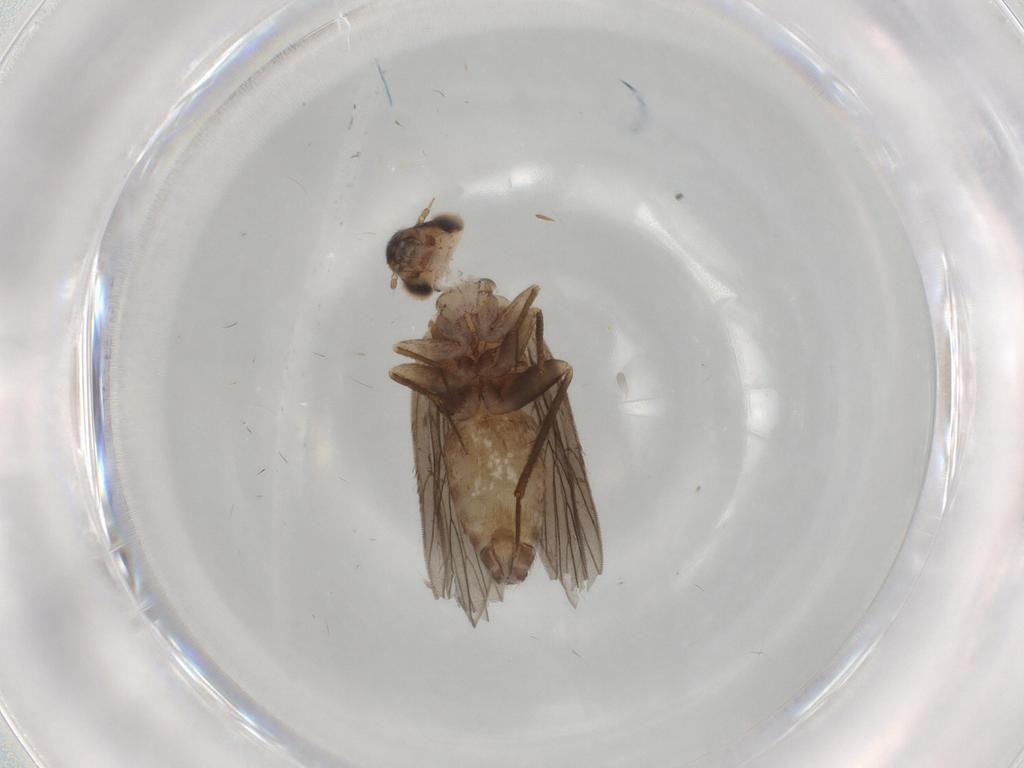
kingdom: Animalia
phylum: Arthropoda
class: Insecta
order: Psocodea
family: Lepidopsocidae
